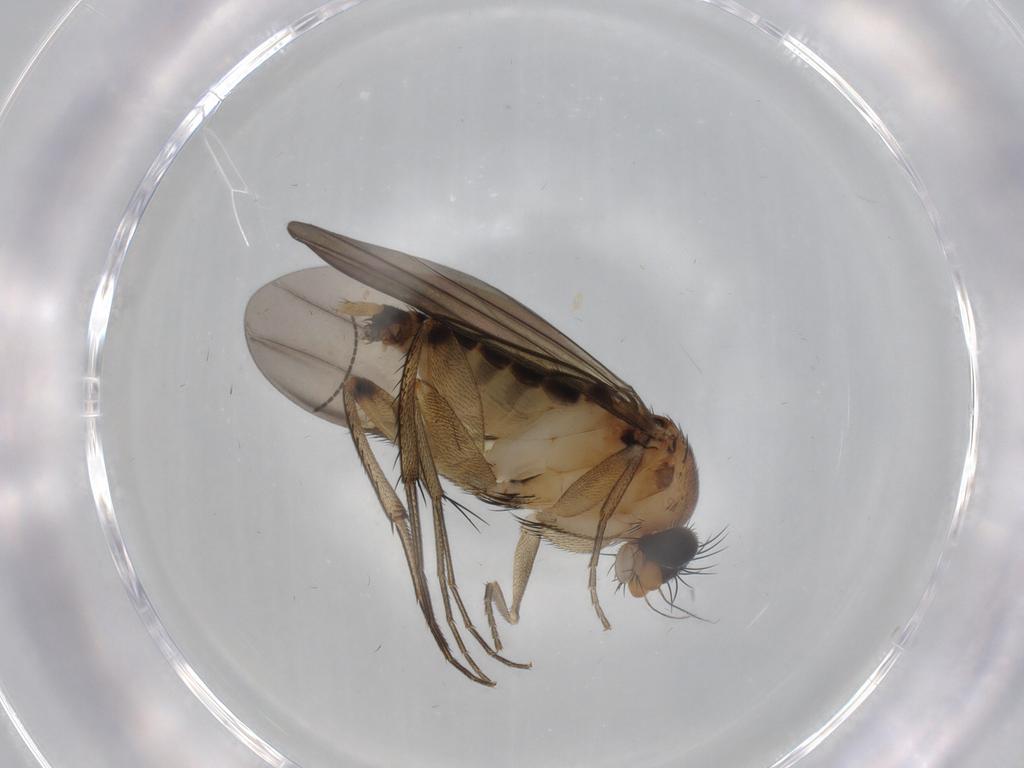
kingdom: Animalia
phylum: Arthropoda
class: Insecta
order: Diptera
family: Phoridae
